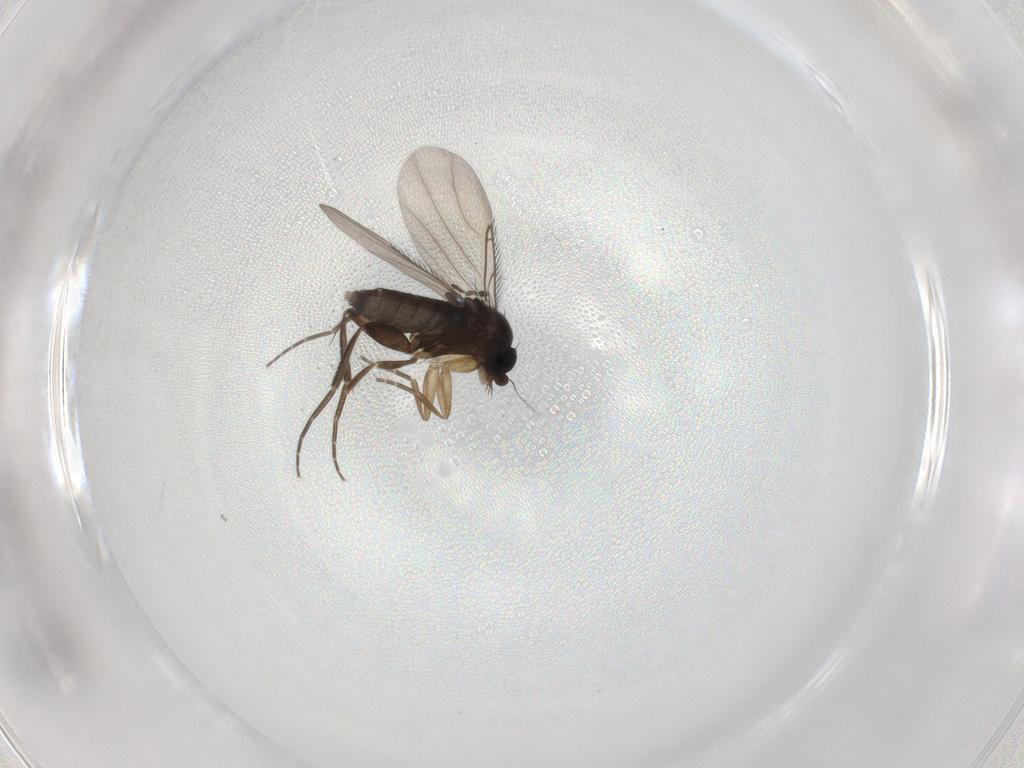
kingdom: Animalia
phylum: Arthropoda
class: Insecta
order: Diptera
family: Phoridae
